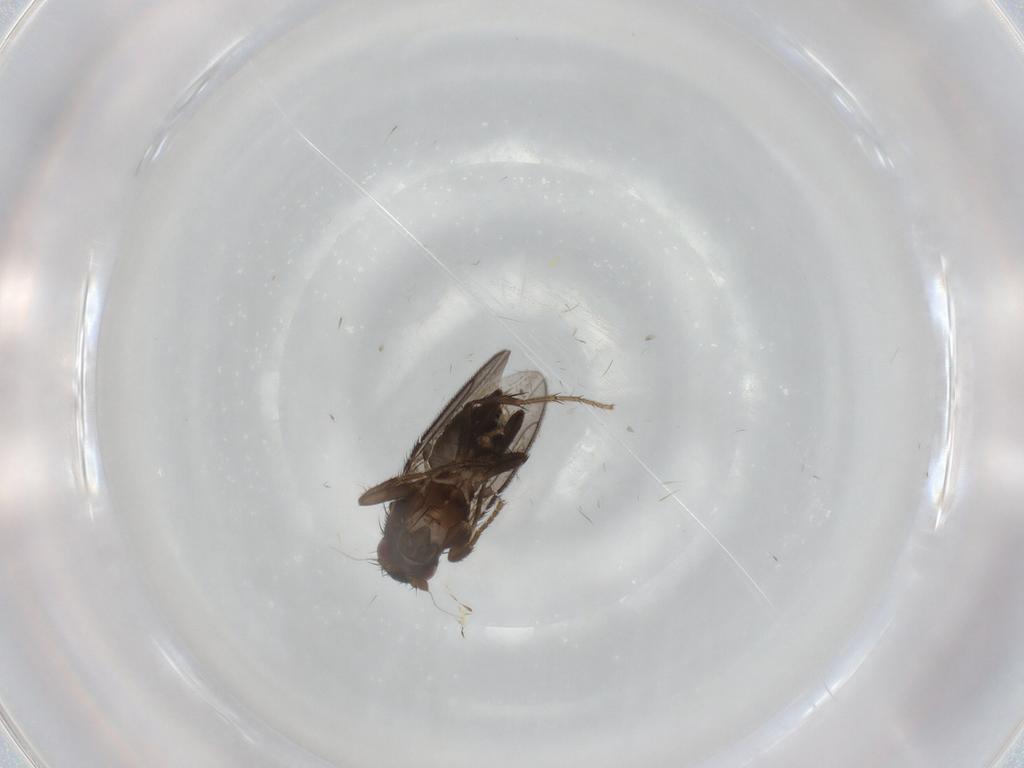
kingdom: Animalia
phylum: Arthropoda
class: Insecta
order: Diptera
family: Sphaeroceridae
